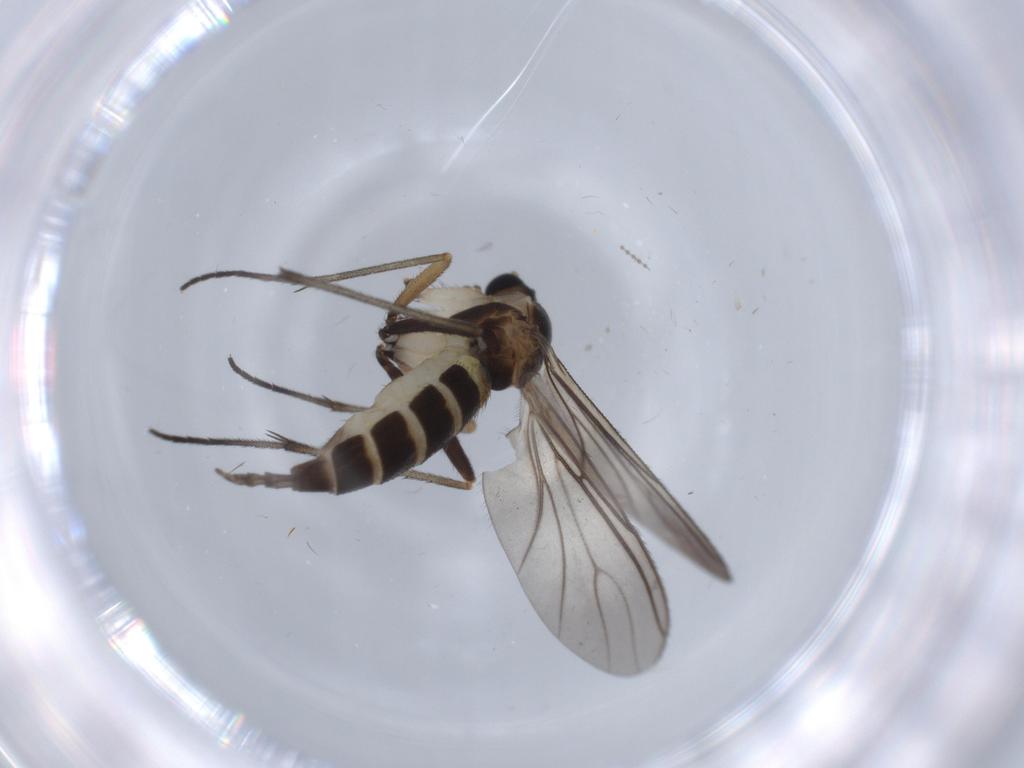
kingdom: Animalia
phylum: Arthropoda
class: Insecta
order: Diptera
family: Sciaridae
